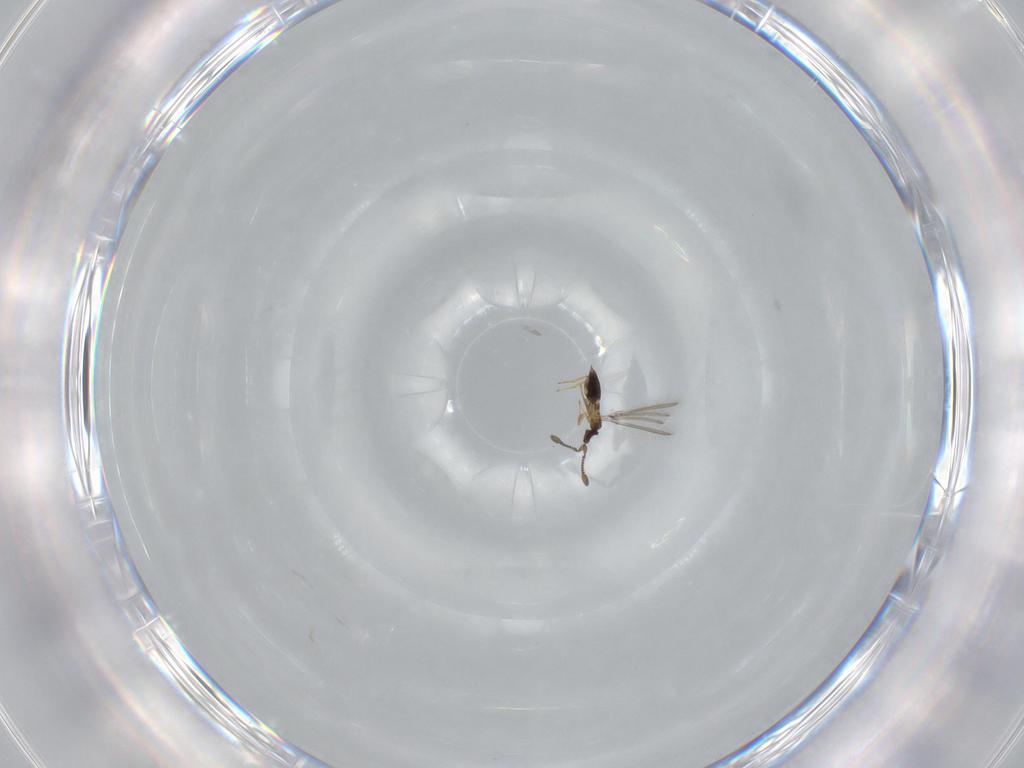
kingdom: Animalia
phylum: Arthropoda
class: Insecta
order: Hymenoptera
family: Mymaridae
